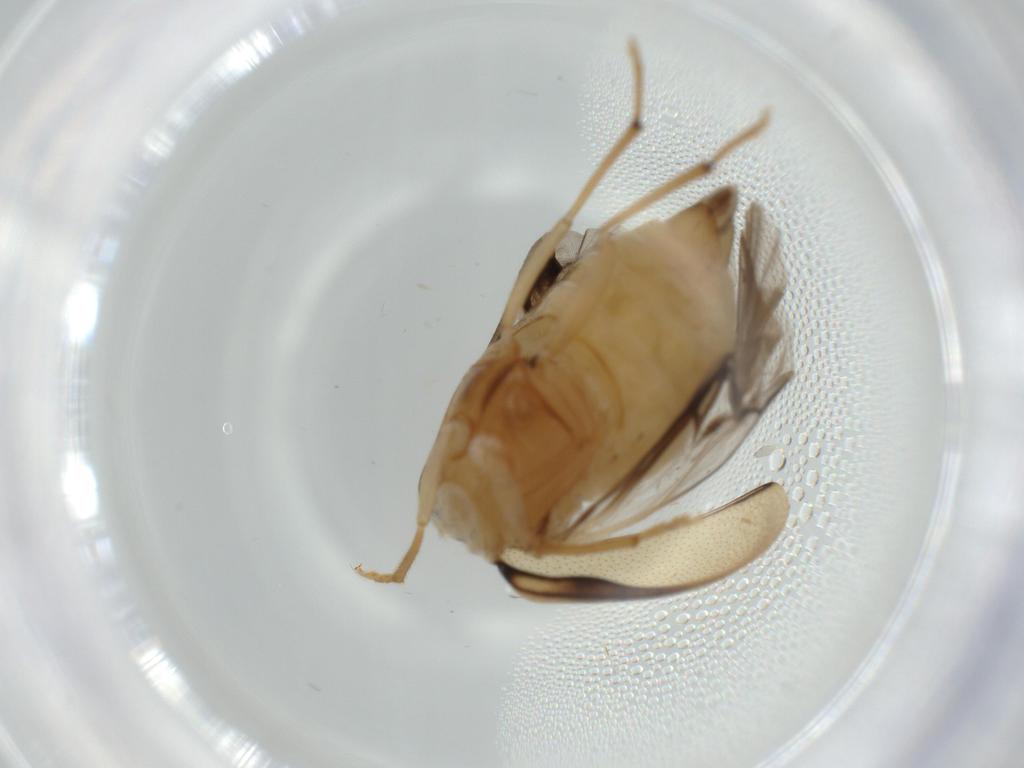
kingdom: Animalia
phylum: Arthropoda
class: Insecta
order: Coleoptera
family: Chrysomelidae
